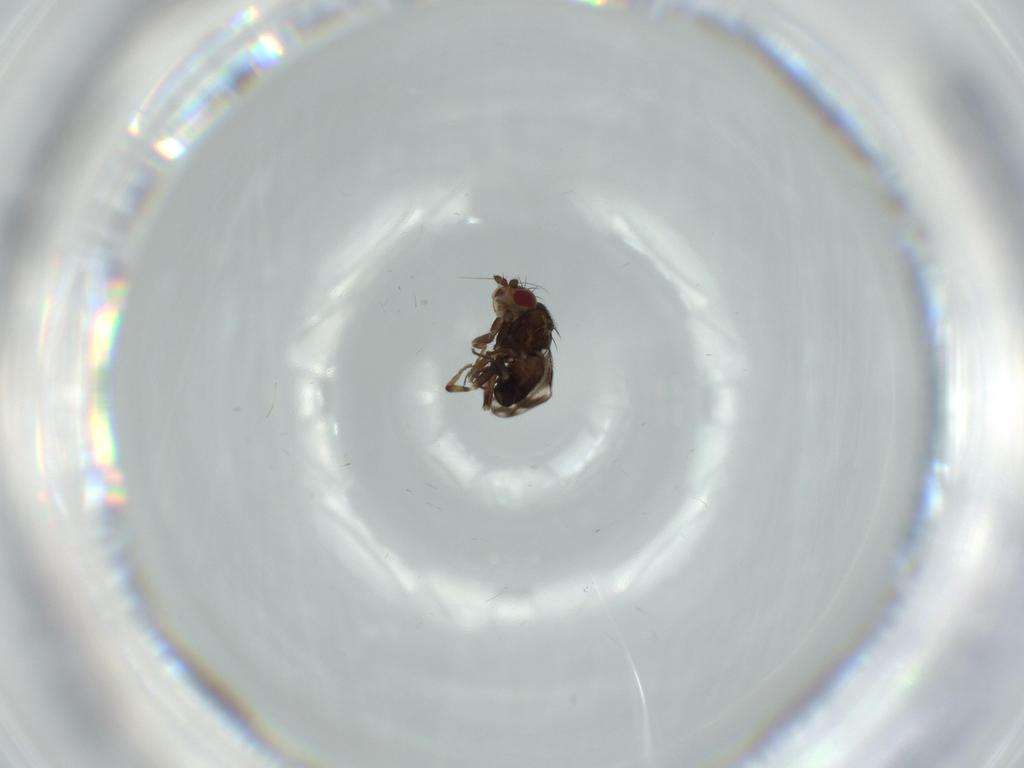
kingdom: Animalia
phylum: Arthropoda
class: Insecta
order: Diptera
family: Sphaeroceridae
